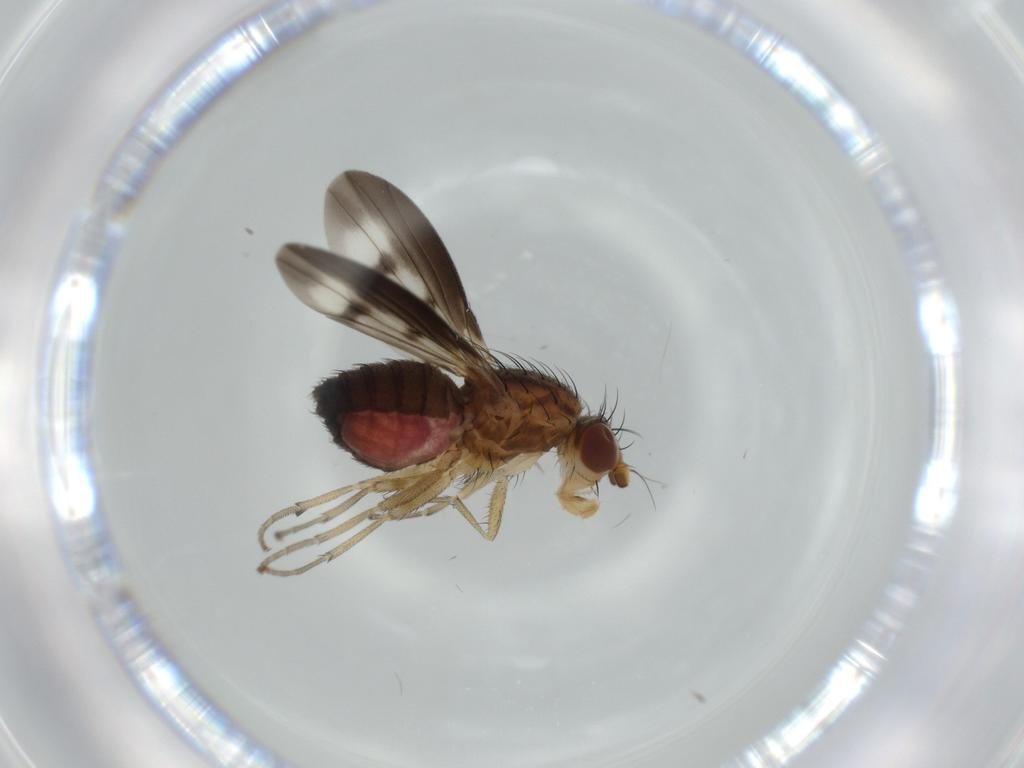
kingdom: Animalia
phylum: Arthropoda
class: Insecta
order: Diptera
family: Heleomyzidae
